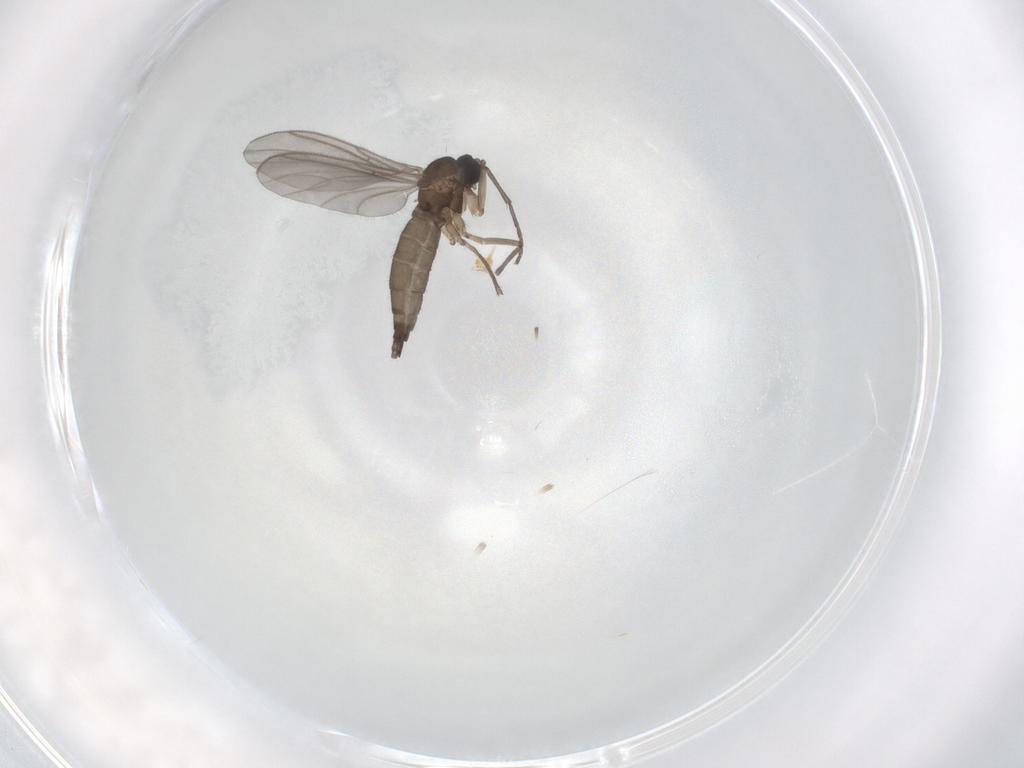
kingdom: Animalia
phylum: Arthropoda
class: Insecta
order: Diptera
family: Sciaridae
